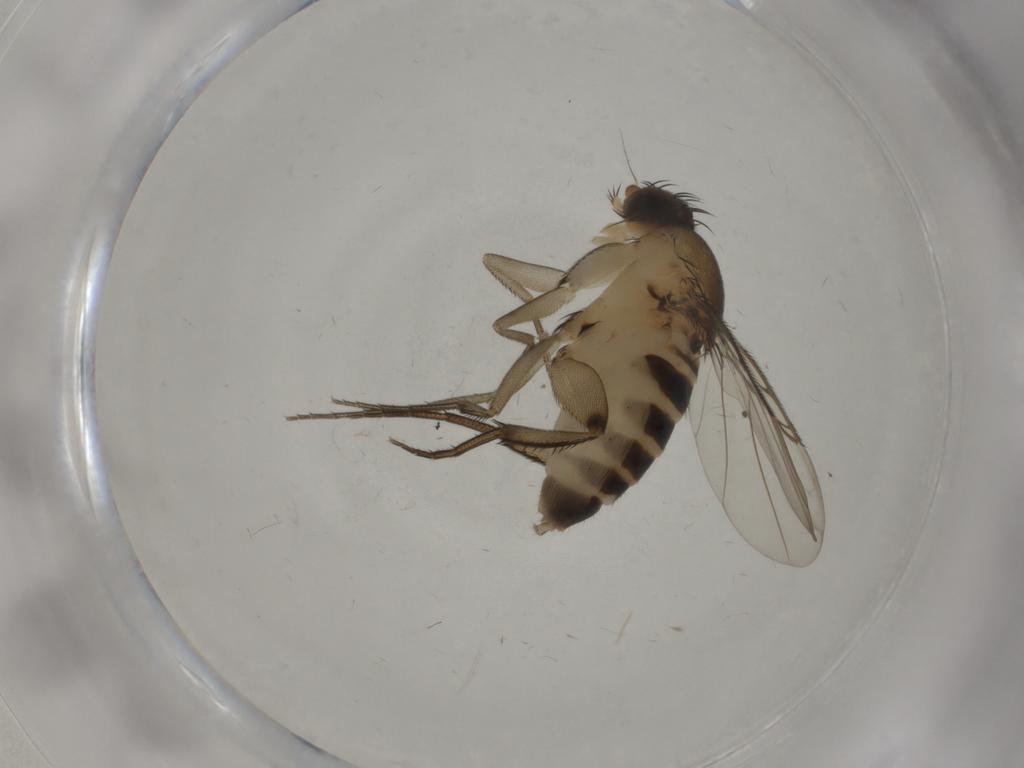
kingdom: Animalia
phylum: Arthropoda
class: Insecta
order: Diptera
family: Phoridae
